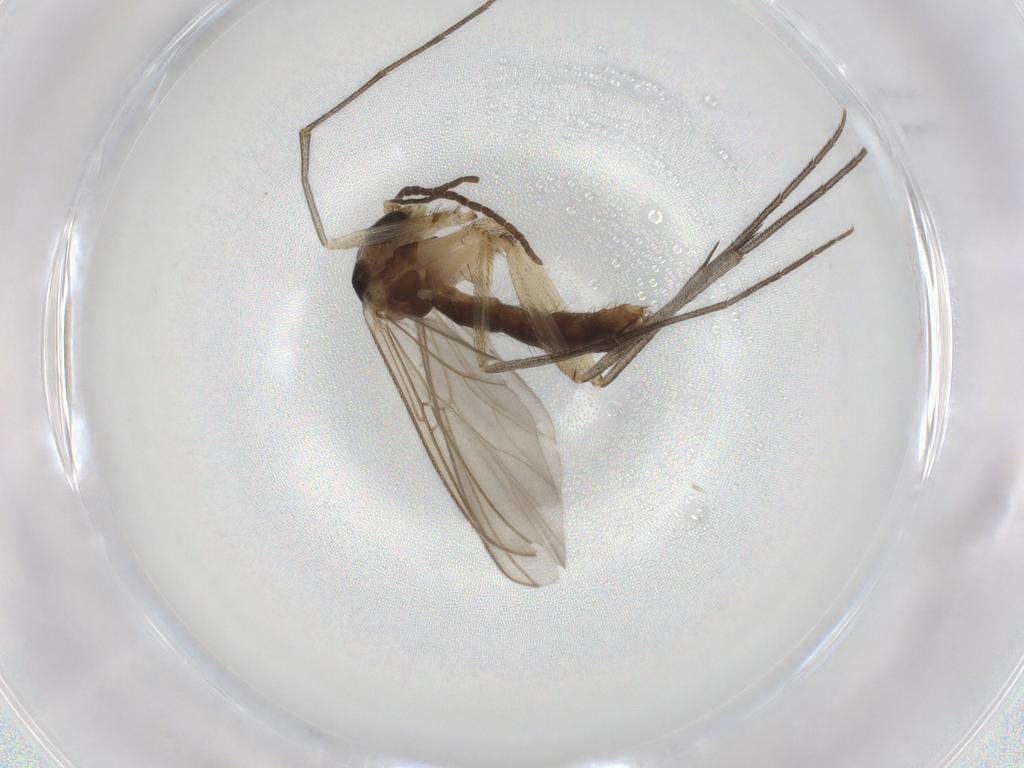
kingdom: Animalia
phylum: Arthropoda
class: Insecta
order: Diptera
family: Mycetophilidae
